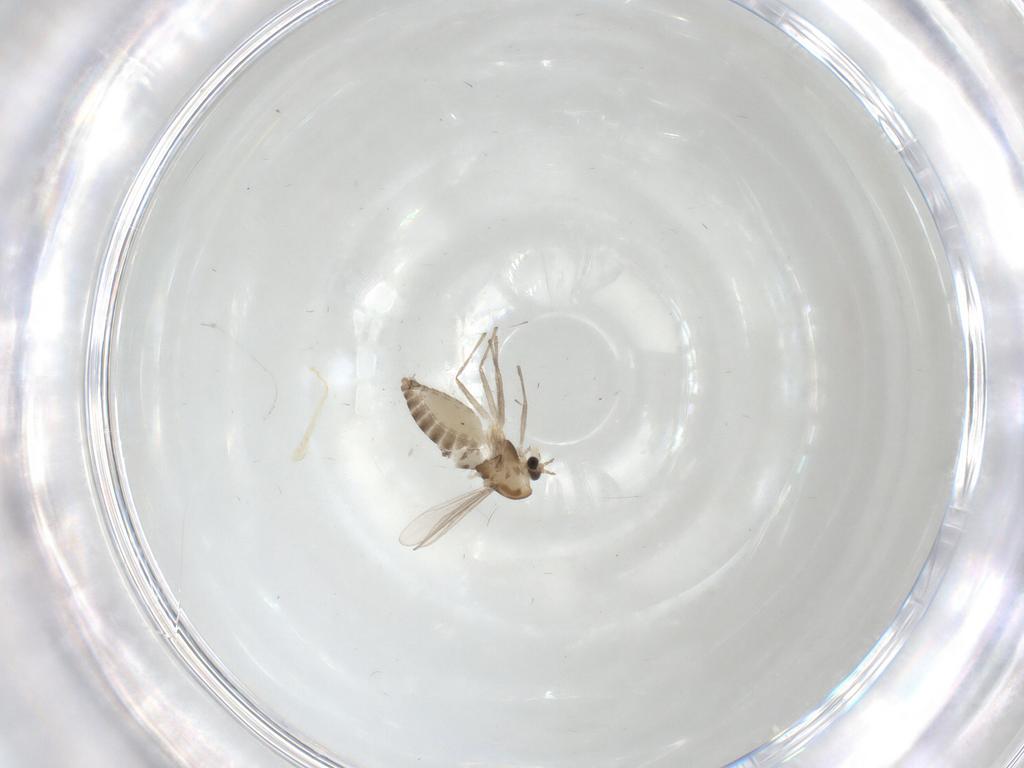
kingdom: Animalia
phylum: Arthropoda
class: Insecta
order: Diptera
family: Chironomidae
